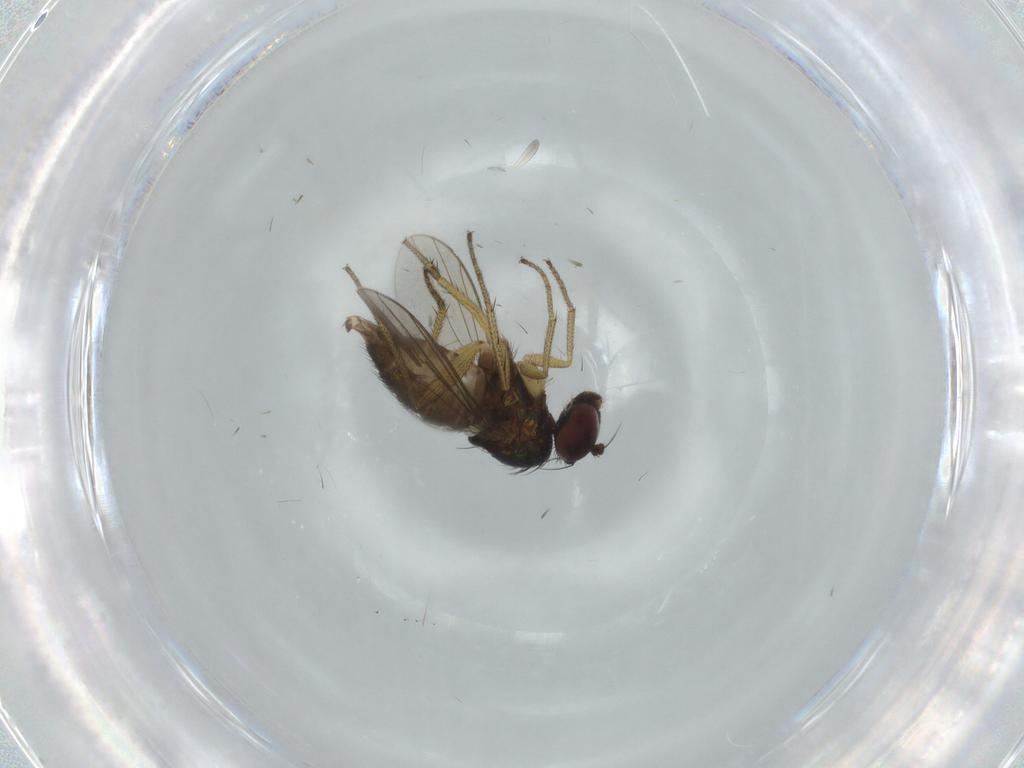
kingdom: Animalia
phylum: Arthropoda
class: Insecta
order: Diptera
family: Dolichopodidae
